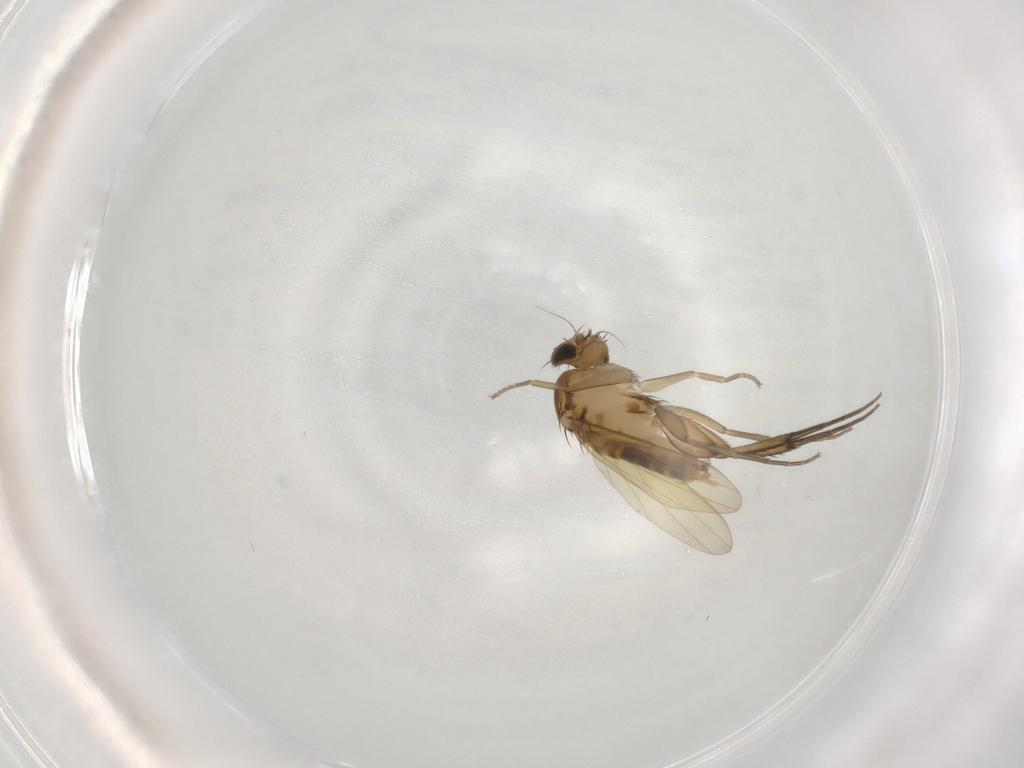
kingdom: Animalia
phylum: Arthropoda
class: Insecta
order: Diptera
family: Phoridae
